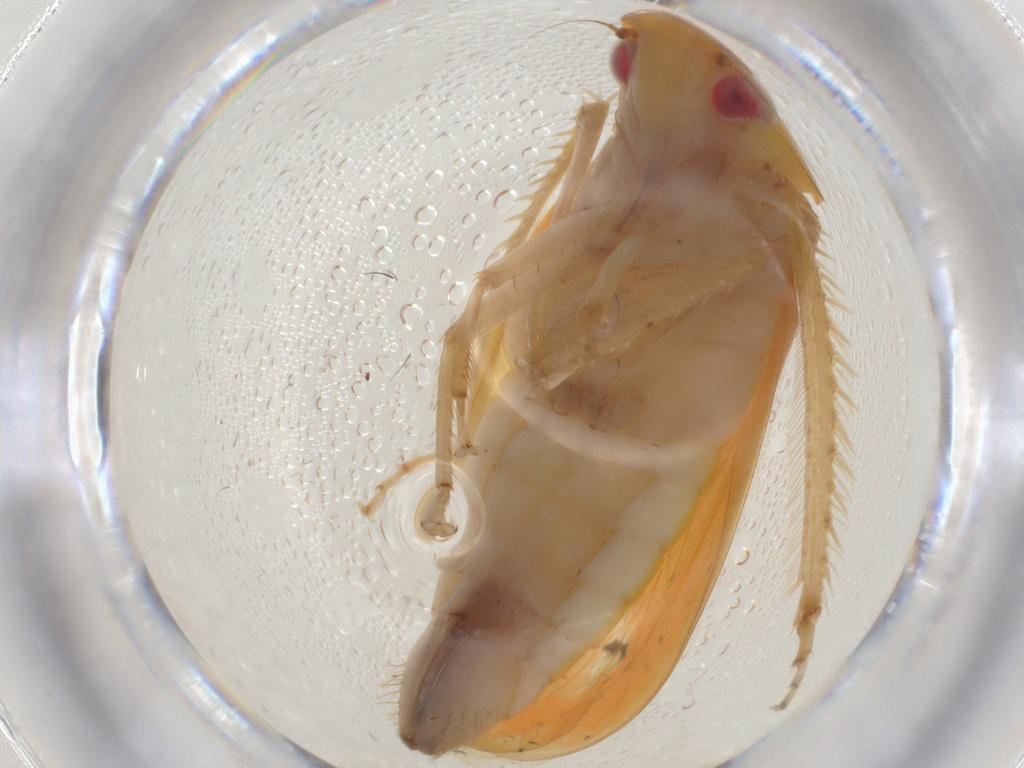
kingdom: Animalia
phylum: Arthropoda
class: Insecta
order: Hemiptera
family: Cicadellidae
